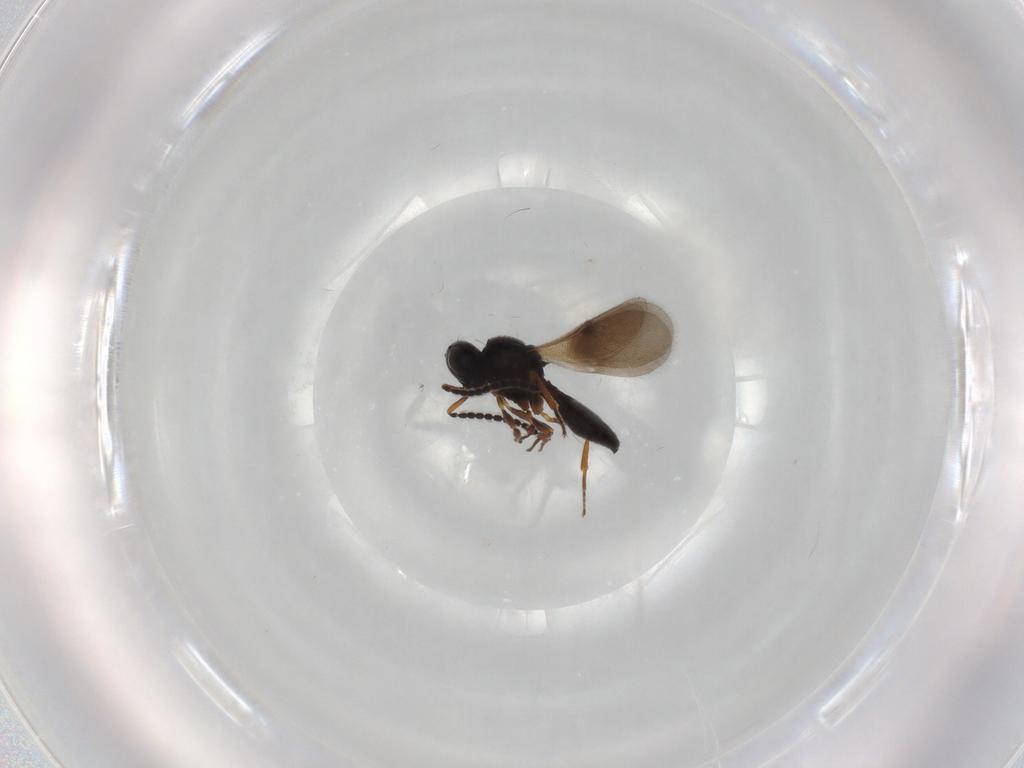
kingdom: Animalia
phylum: Arthropoda
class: Insecta
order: Hymenoptera
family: Scelionidae
